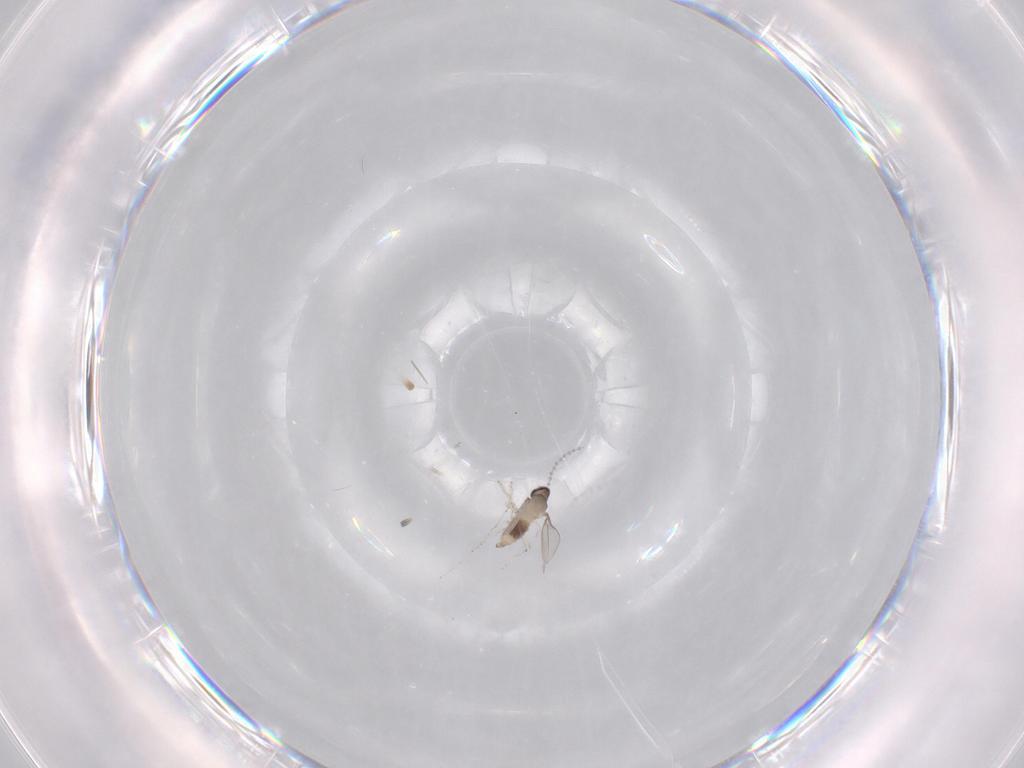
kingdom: Animalia
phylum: Arthropoda
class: Insecta
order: Diptera
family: Cecidomyiidae
